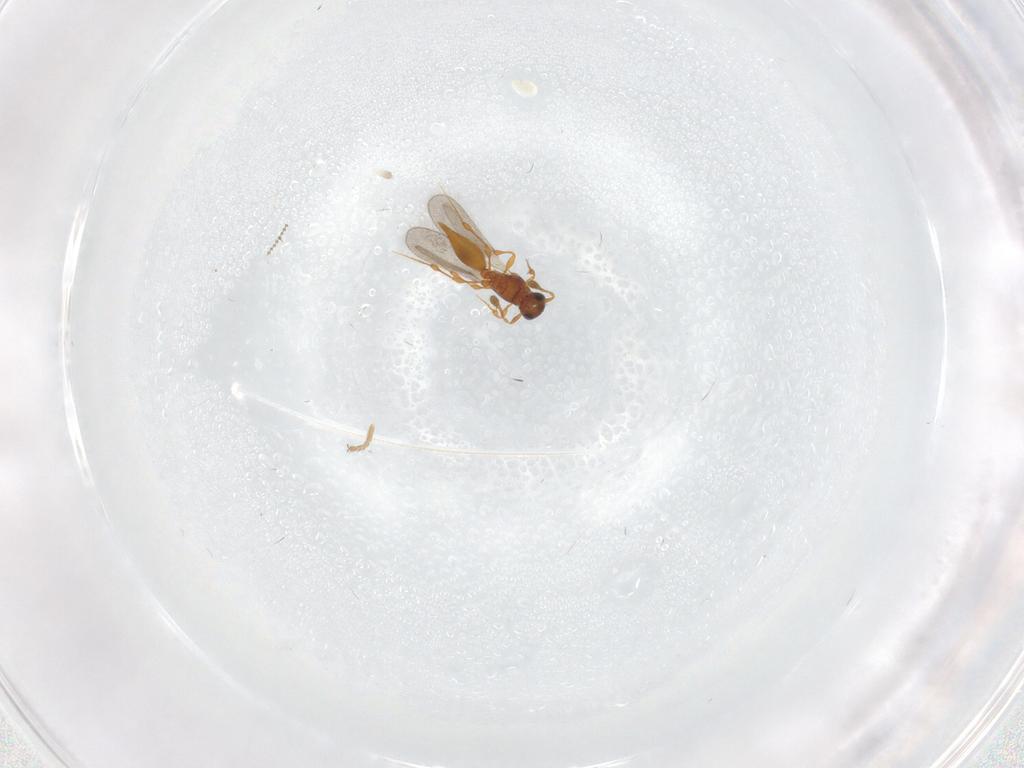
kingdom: Animalia
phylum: Arthropoda
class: Insecta
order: Hymenoptera
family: Platygastridae
